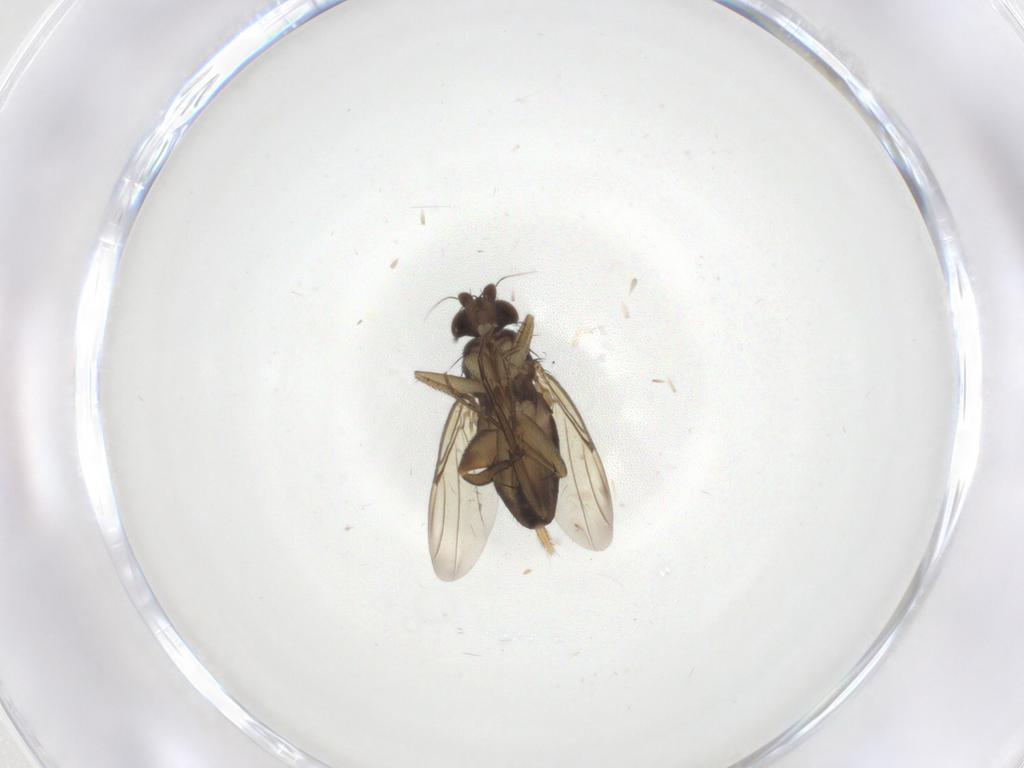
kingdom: Animalia
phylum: Arthropoda
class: Insecta
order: Diptera
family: Phoridae
